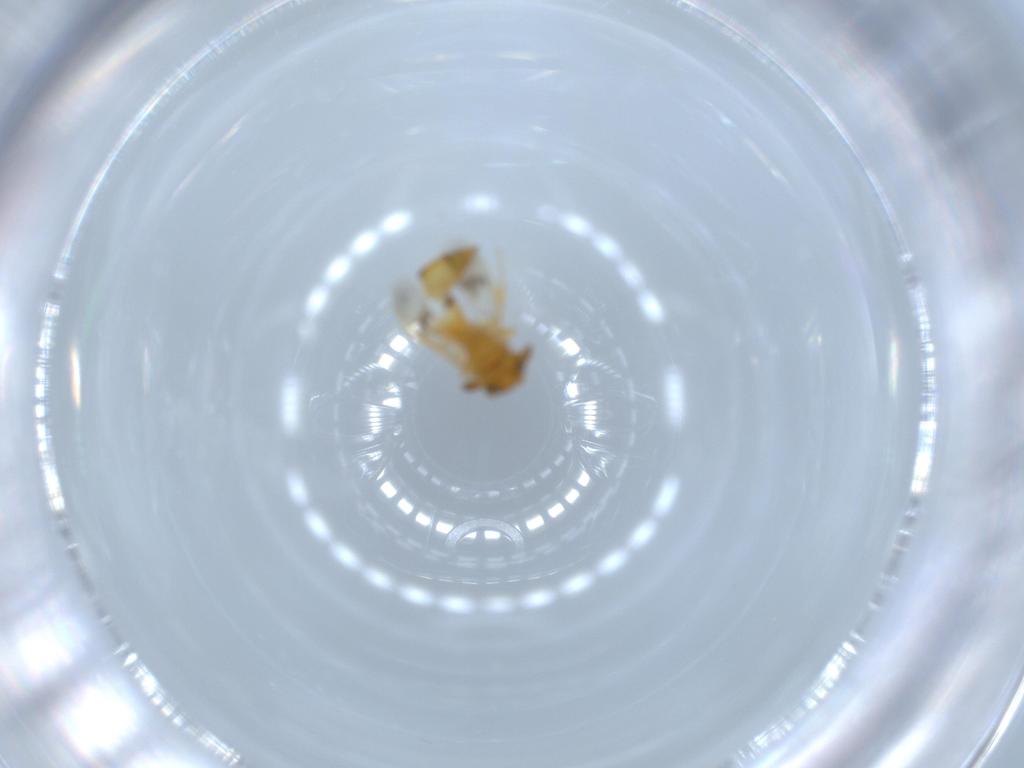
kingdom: Animalia
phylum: Arthropoda
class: Insecta
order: Hymenoptera
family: Scelionidae
